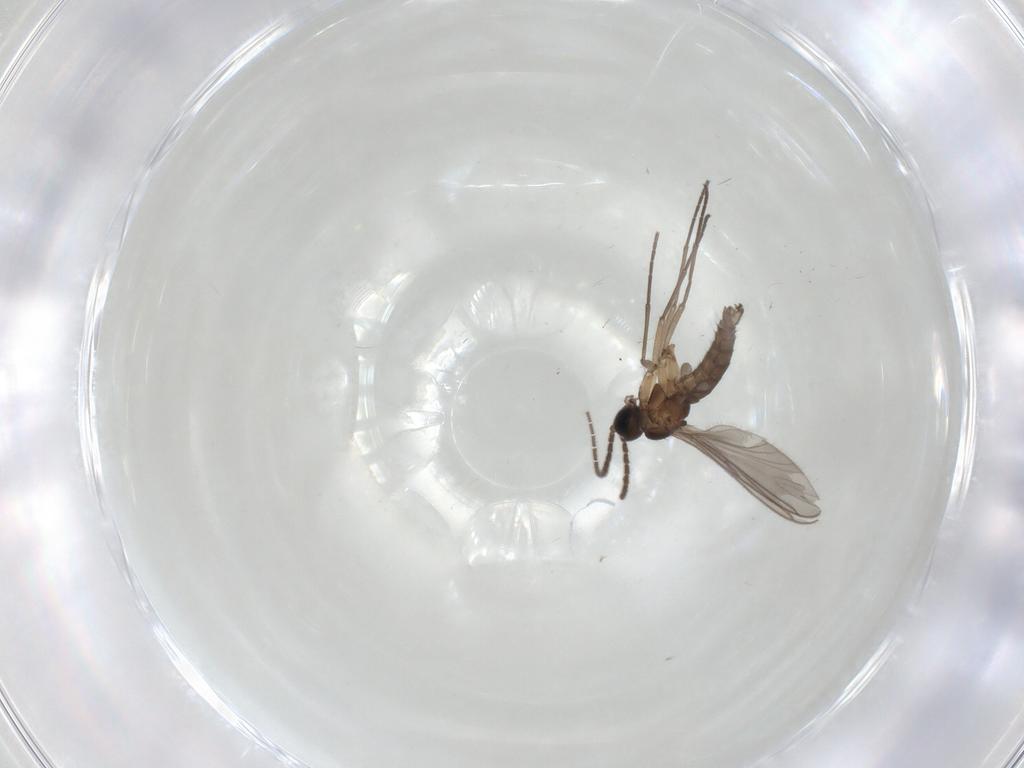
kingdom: Animalia
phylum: Arthropoda
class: Insecta
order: Diptera
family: Sciaridae
